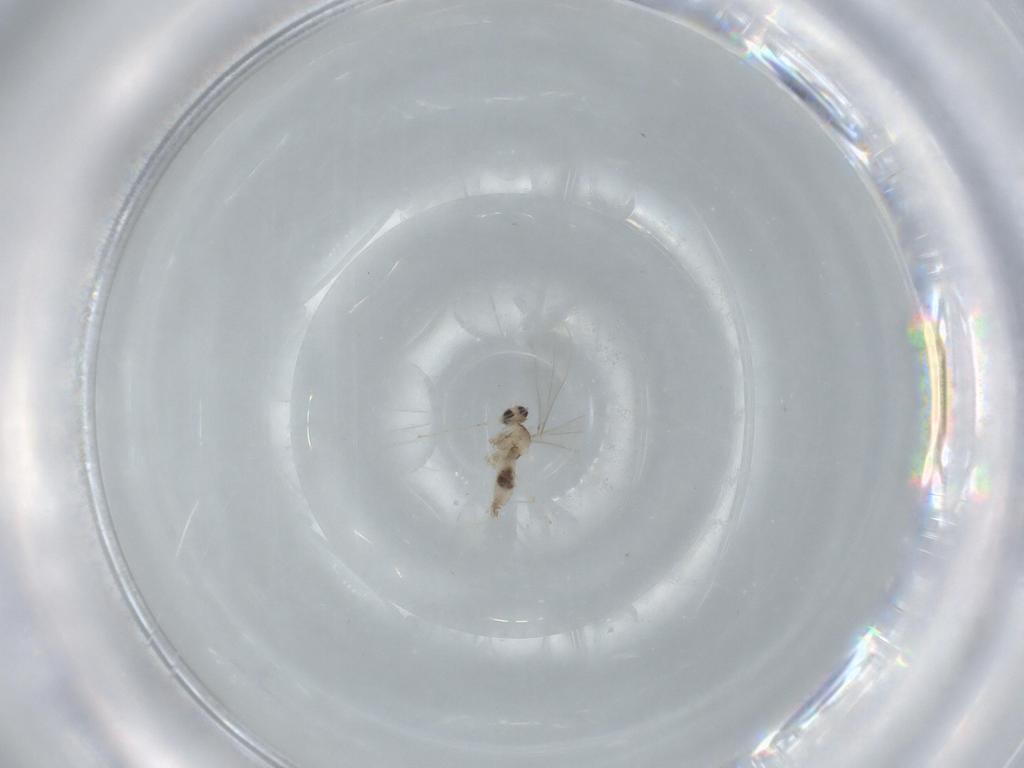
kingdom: Animalia
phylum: Arthropoda
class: Insecta
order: Diptera
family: Cecidomyiidae
